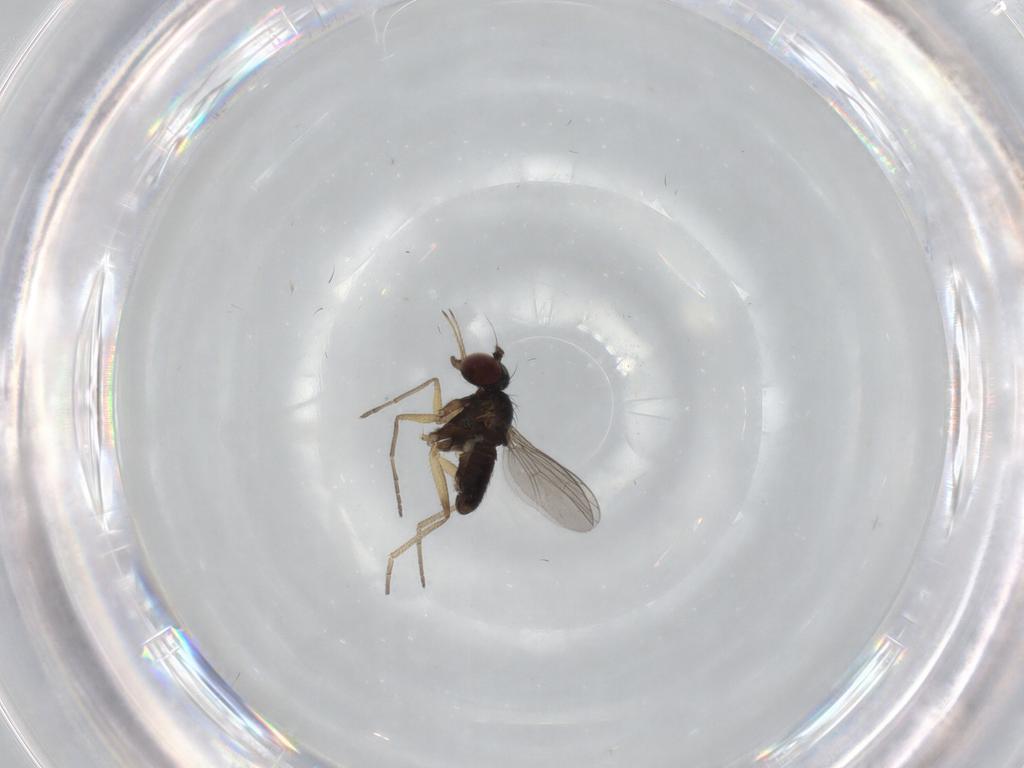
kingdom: Animalia
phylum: Arthropoda
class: Insecta
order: Diptera
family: Dolichopodidae
